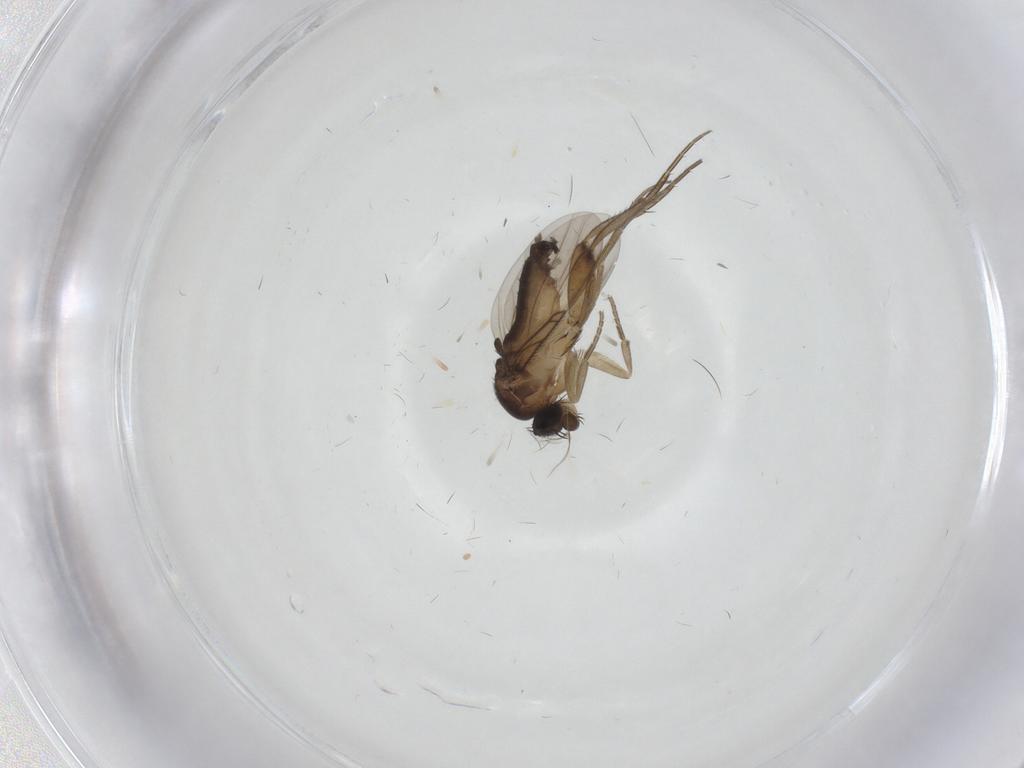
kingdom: Animalia
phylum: Arthropoda
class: Insecta
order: Diptera
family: Phoridae
